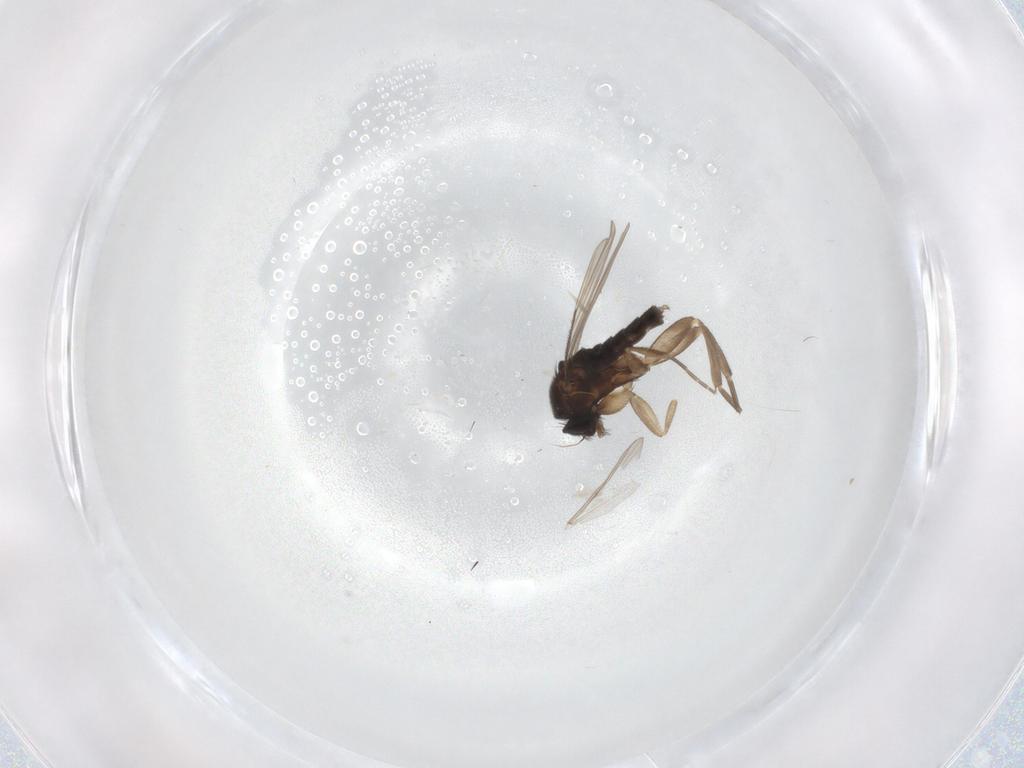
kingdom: Animalia
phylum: Arthropoda
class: Insecta
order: Diptera
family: Phoridae
